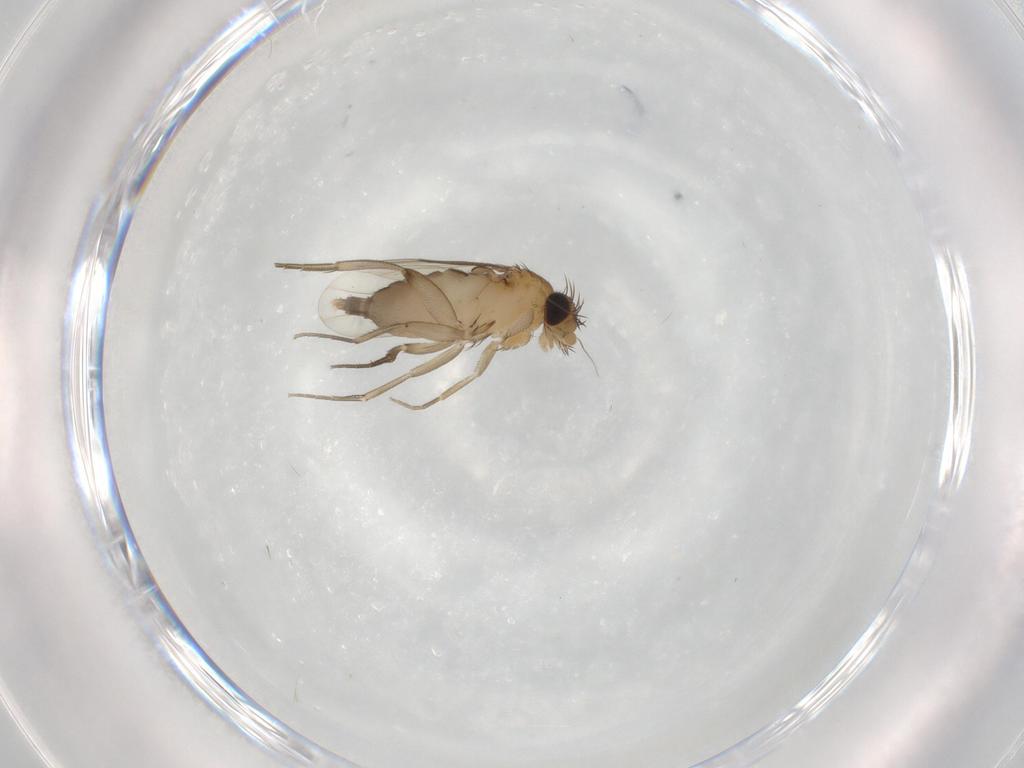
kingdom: Animalia
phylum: Arthropoda
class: Insecta
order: Diptera
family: Phoridae
